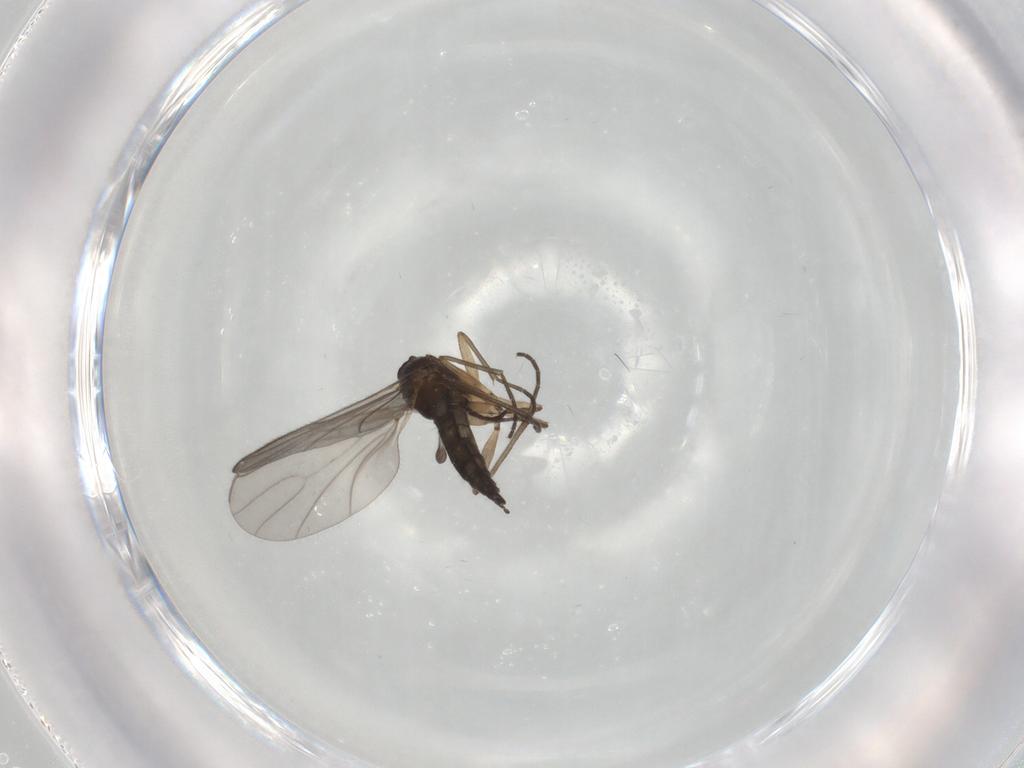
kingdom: Animalia
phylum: Arthropoda
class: Insecta
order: Diptera
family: Sciaridae
